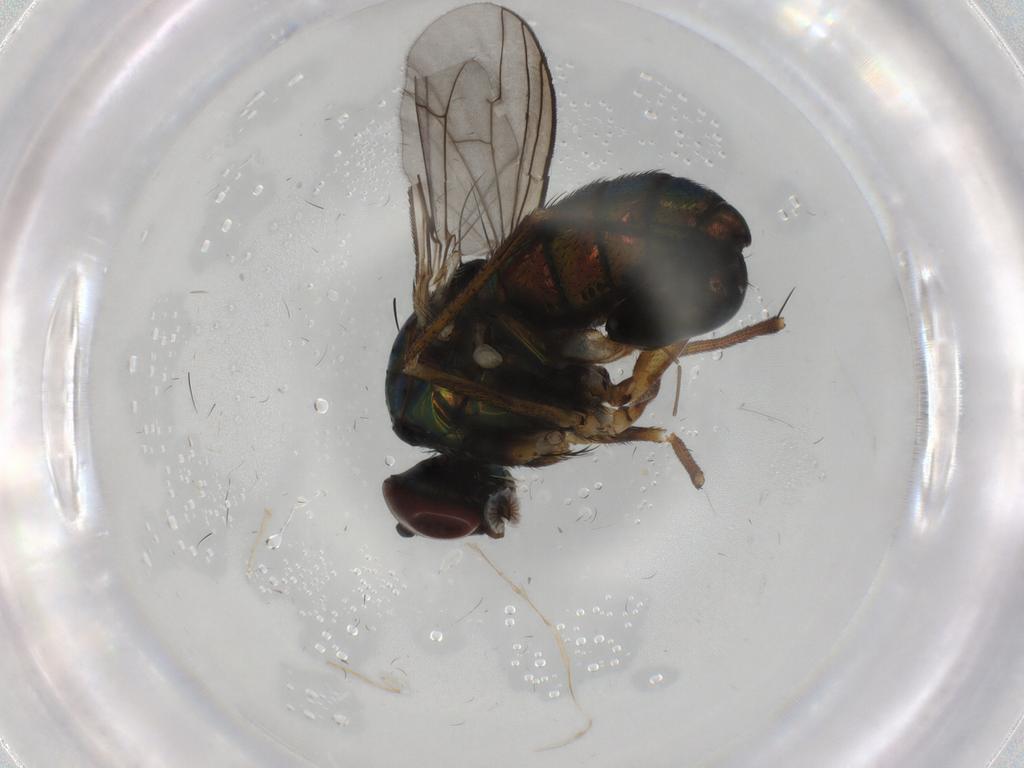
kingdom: Animalia
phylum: Arthropoda
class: Insecta
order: Diptera
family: Dolichopodidae
